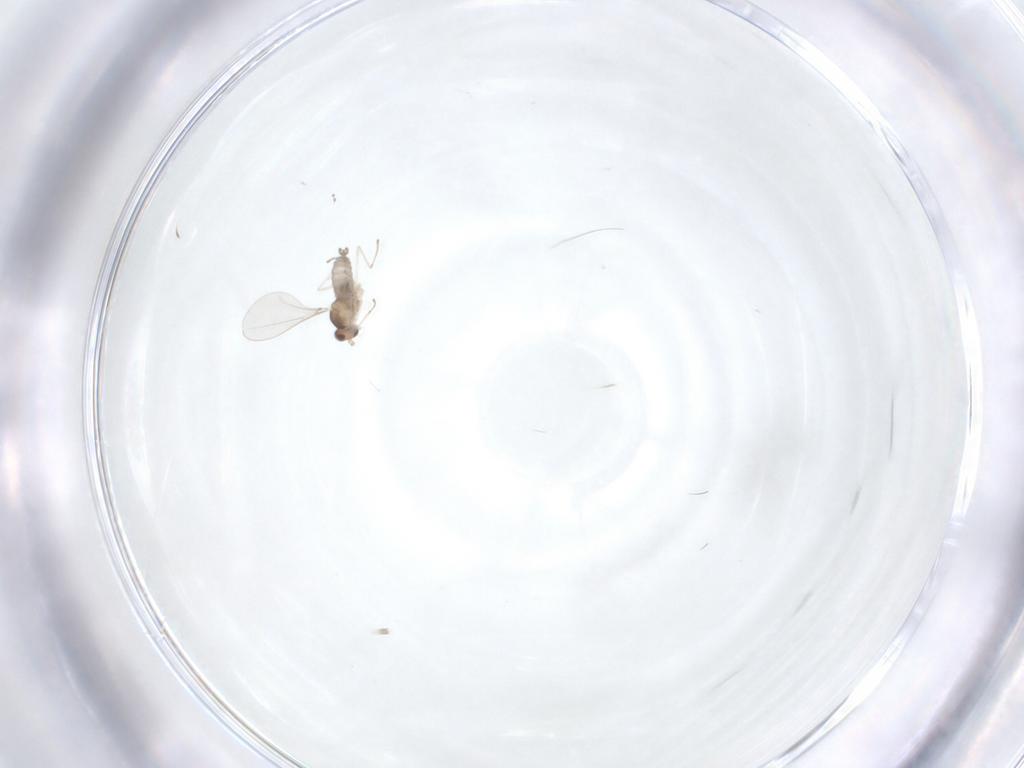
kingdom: Animalia
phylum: Arthropoda
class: Insecta
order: Diptera
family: Cecidomyiidae
